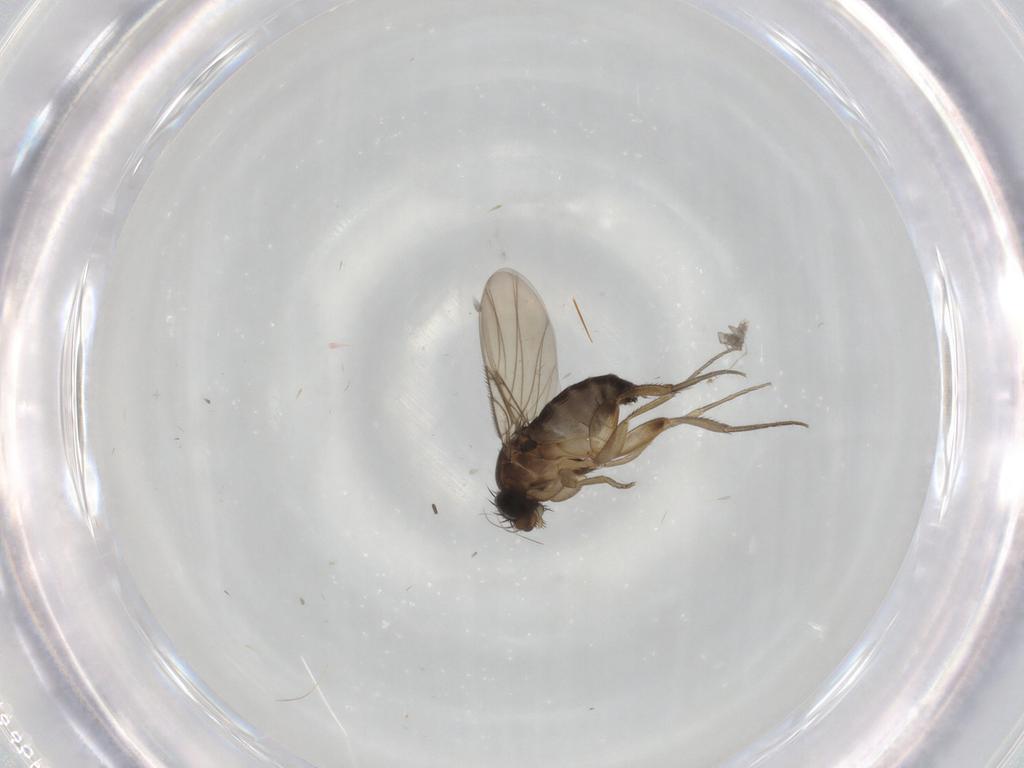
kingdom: Animalia
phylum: Arthropoda
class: Insecta
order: Diptera
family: Phoridae
